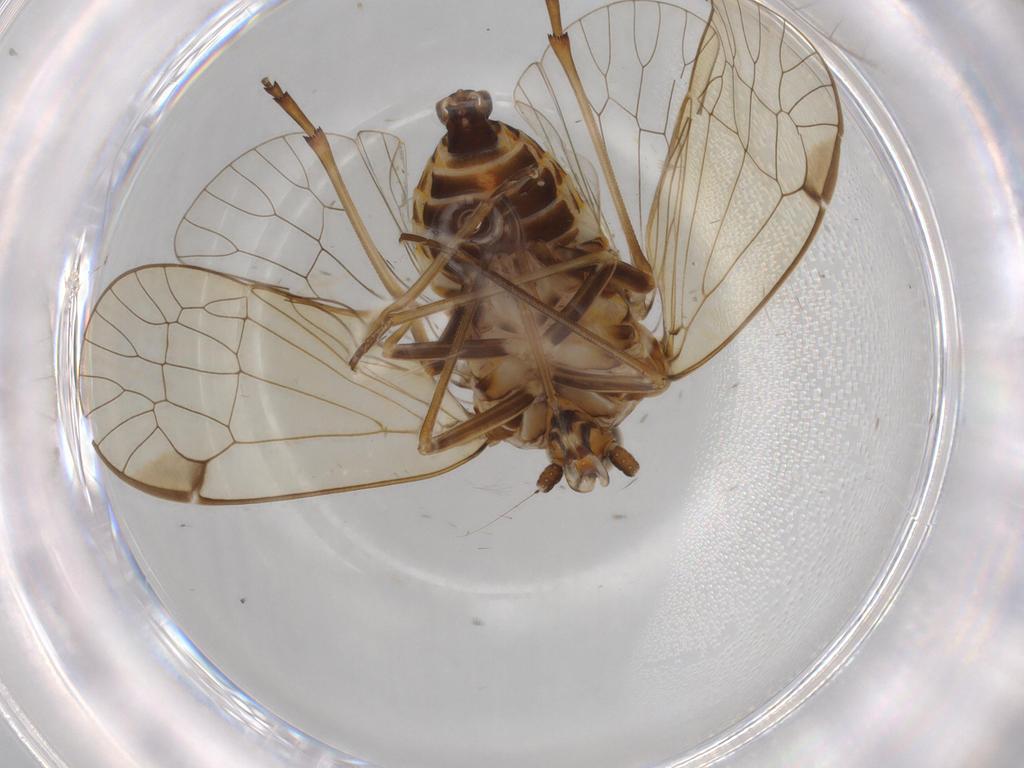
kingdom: Animalia
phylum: Arthropoda
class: Insecta
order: Hemiptera
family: Kinnaridae
